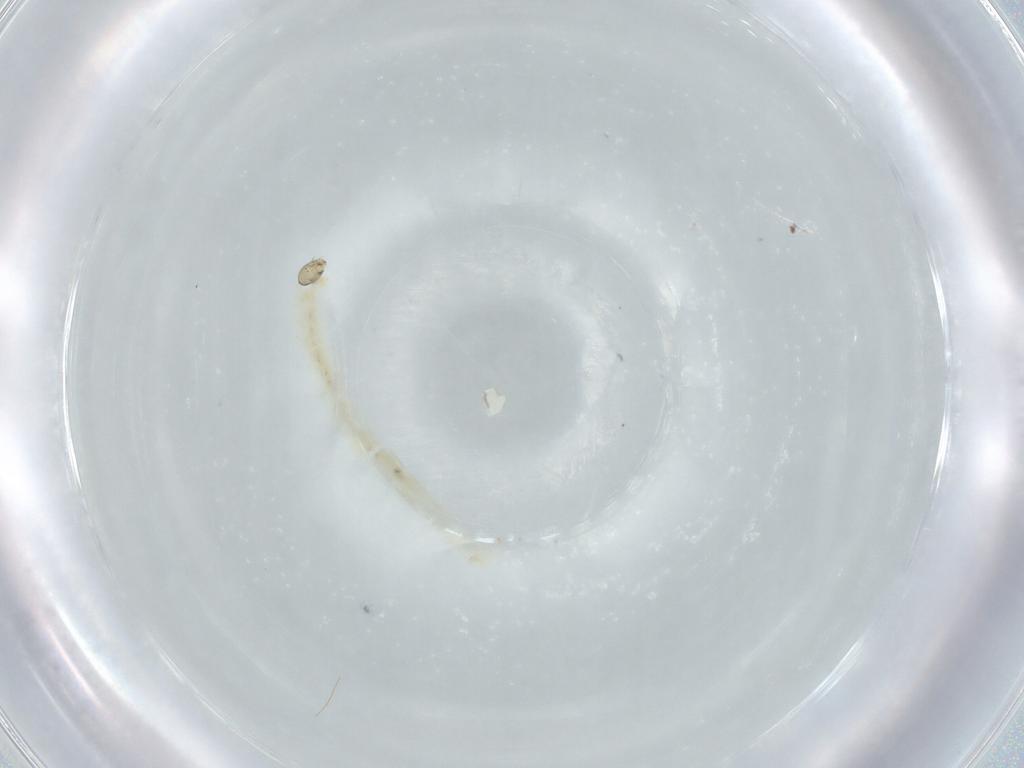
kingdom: Animalia
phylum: Arthropoda
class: Insecta
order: Diptera
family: Chironomidae
